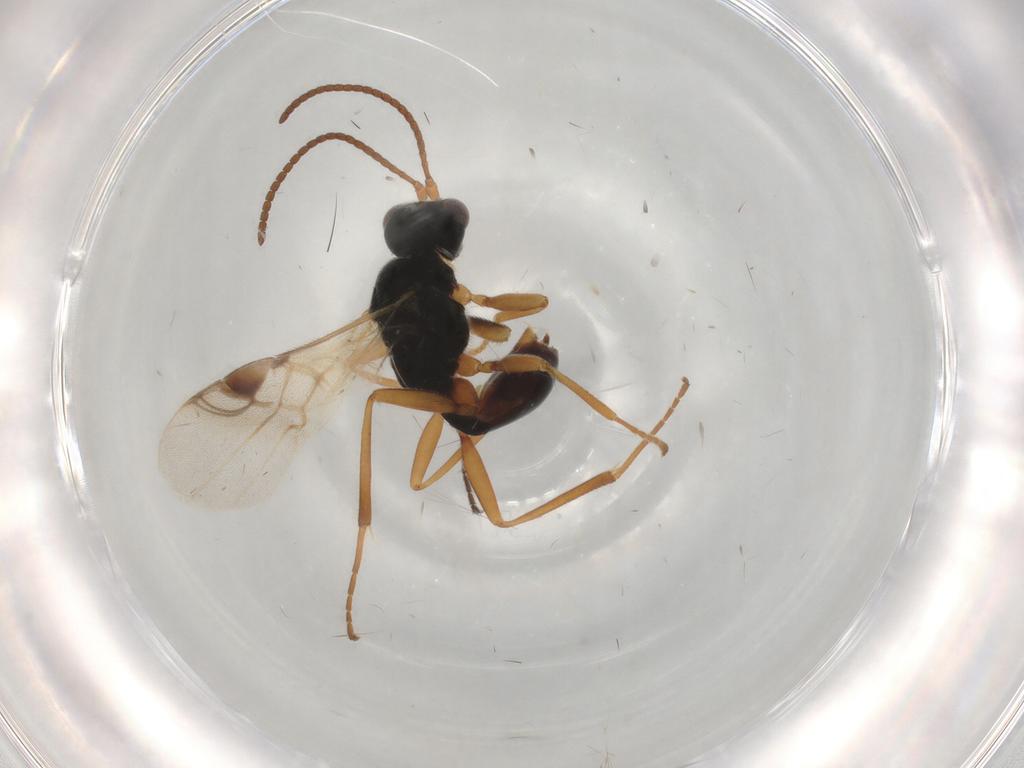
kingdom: Animalia
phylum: Arthropoda
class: Insecta
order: Hymenoptera
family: Braconidae
